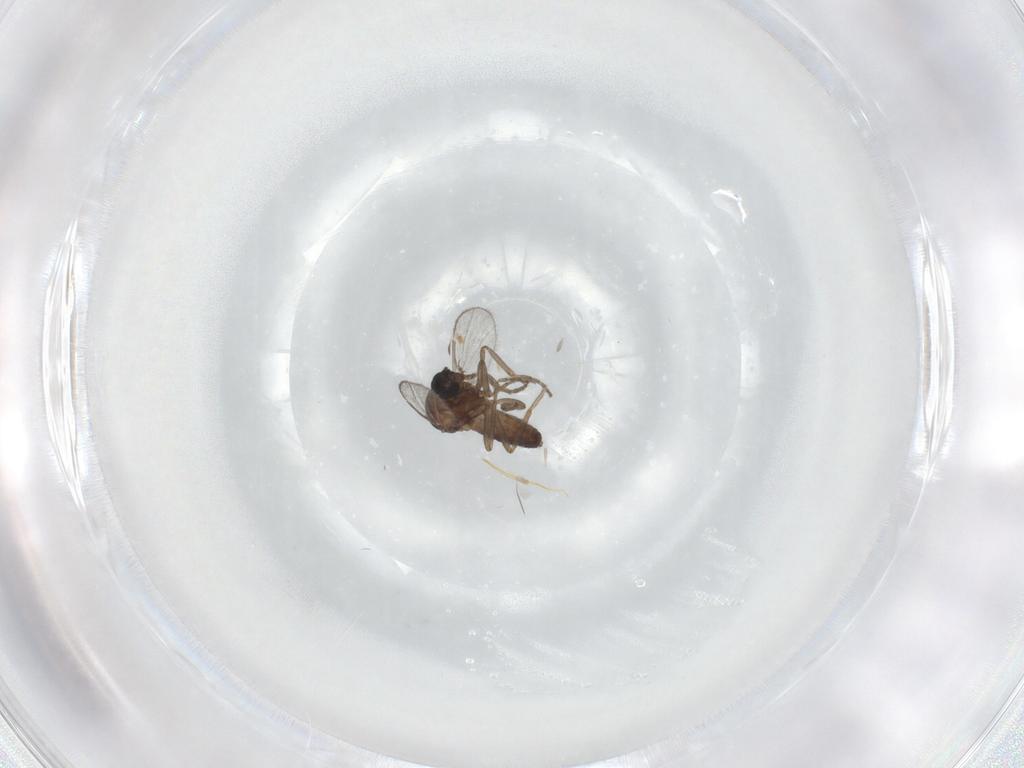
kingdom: Animalia
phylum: Arthropoda
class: Insecta
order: Diptera
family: Ceratopogonidae
